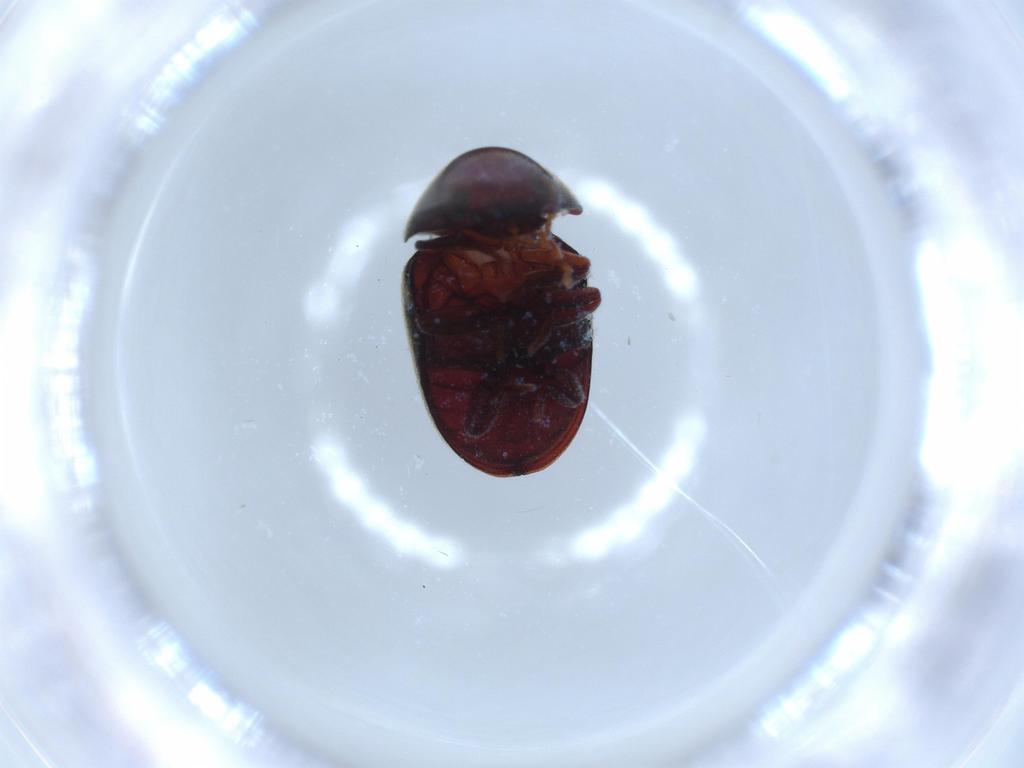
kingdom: Animalia
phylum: Arthropoda
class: Insecta
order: Coleoptera
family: Ptinidae
